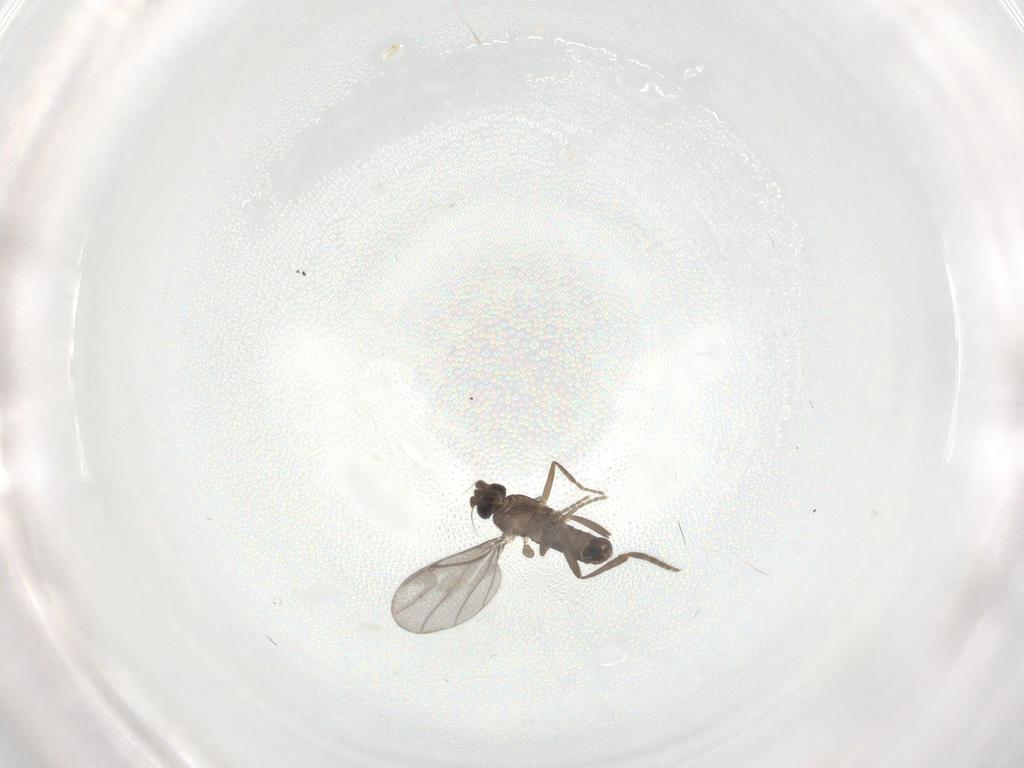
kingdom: Animalia
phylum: Arthropoda
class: Insecta
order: Diptera
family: Phoridae
